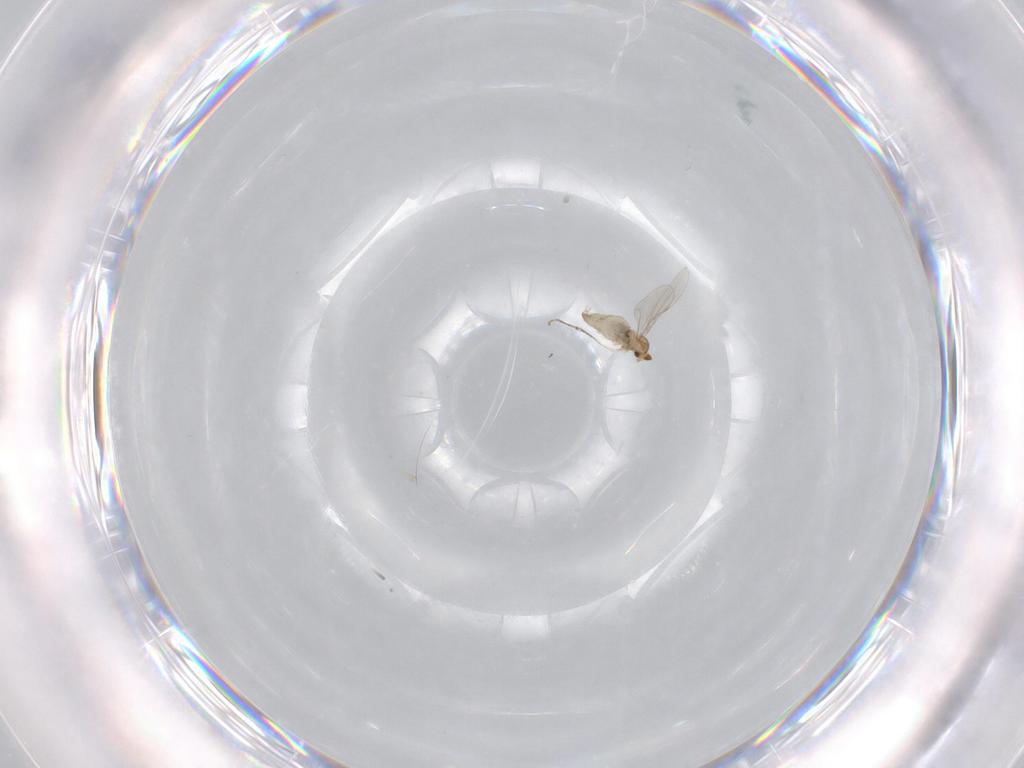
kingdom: Animalia
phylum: Arthropoda
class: Insecta
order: Diptera
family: Cecidomyiidae
